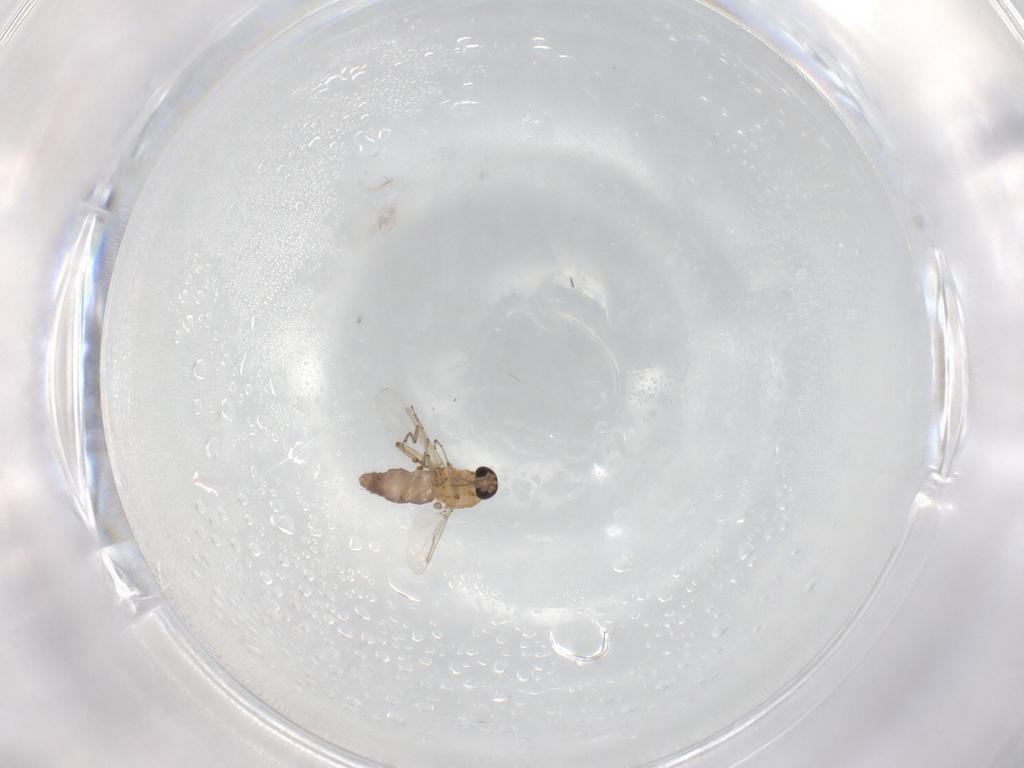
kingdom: Animalia
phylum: Arthropoda
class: Insecta
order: Diptera
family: Ceratopogonidae
